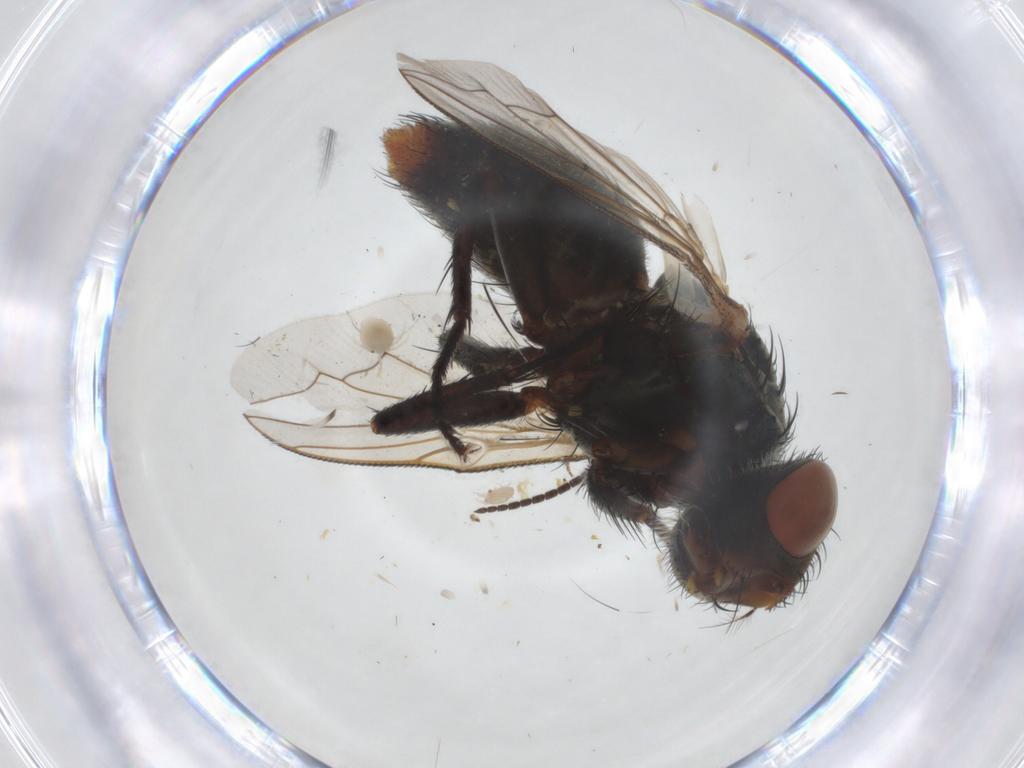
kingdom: Animalia
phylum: Arthropoda
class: Insecta
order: Diptera
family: Sarcophagidae
